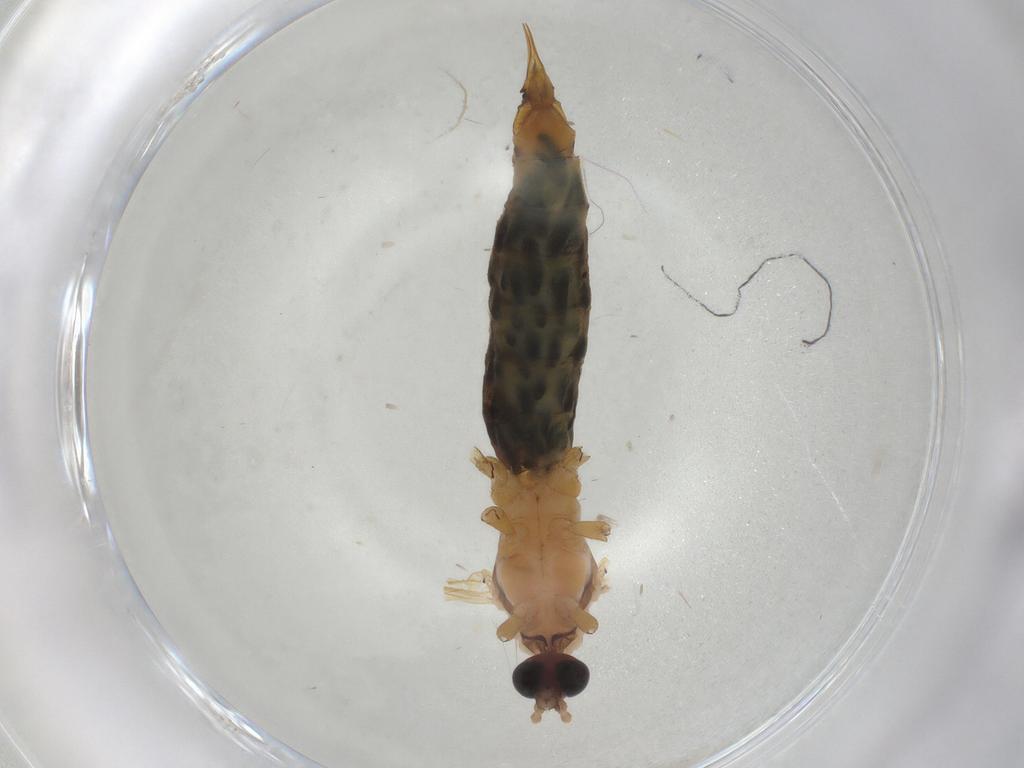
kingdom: Animalia
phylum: Arthropoda
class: Insecta
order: Diptera
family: Limoniidae
